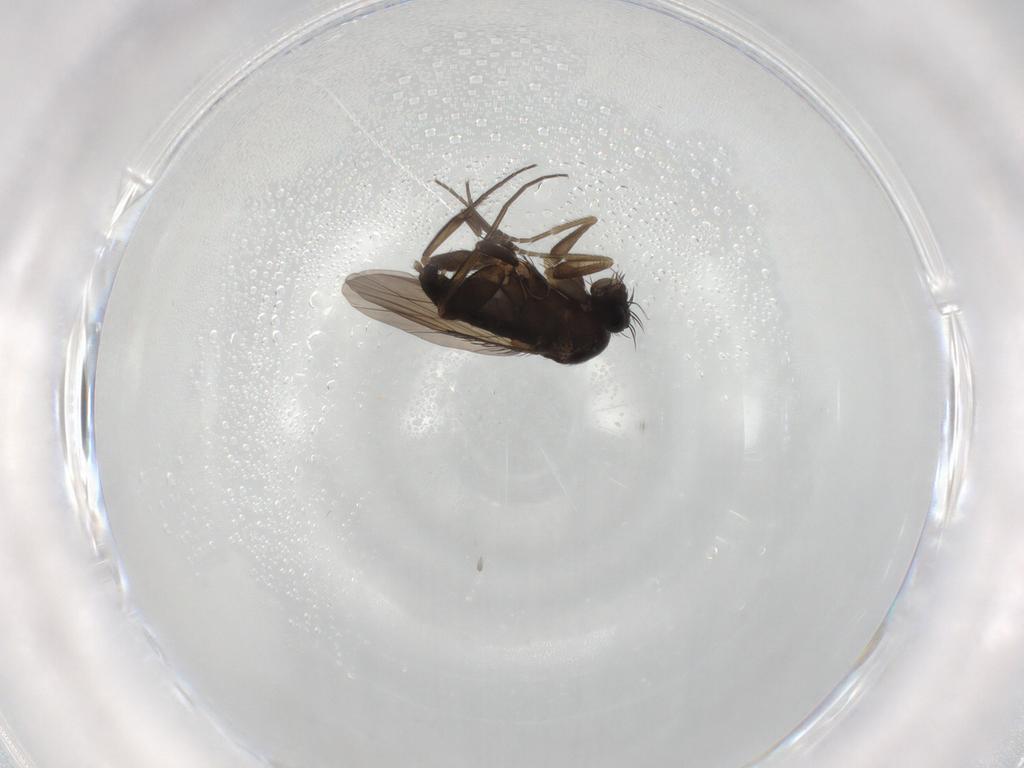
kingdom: Animalia
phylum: Arthropoda
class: Insecta
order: Diptera
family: Phoridae
